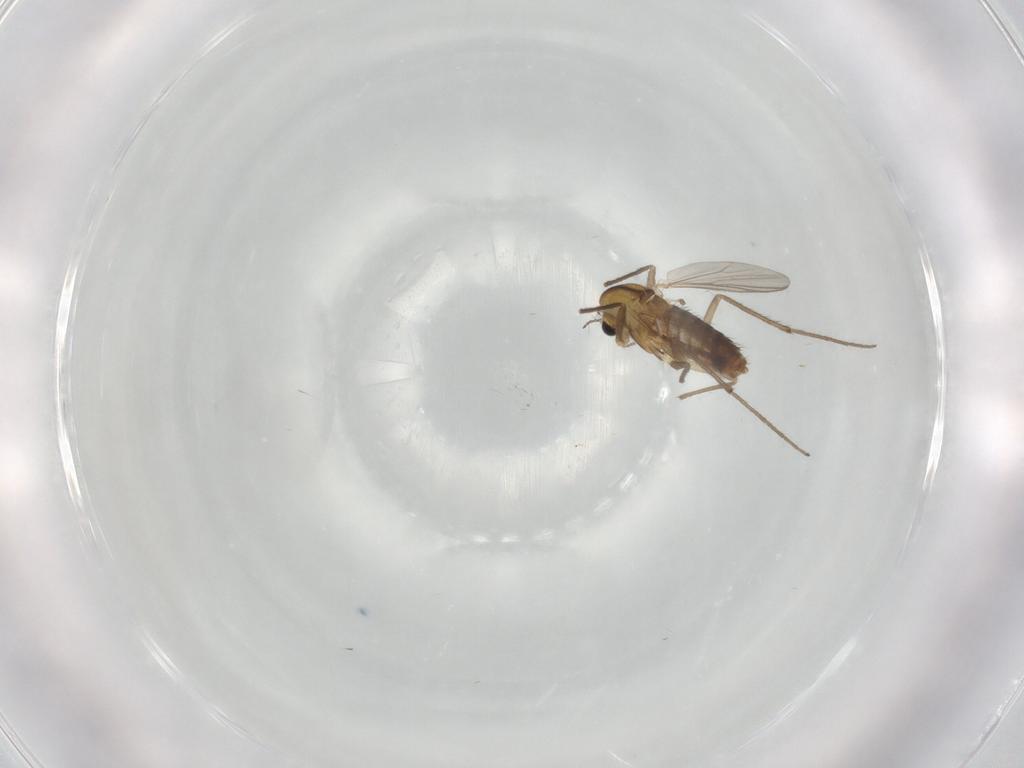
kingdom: Animalia
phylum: Arthropoda
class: Insecta
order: Diptera
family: Chironomidae
